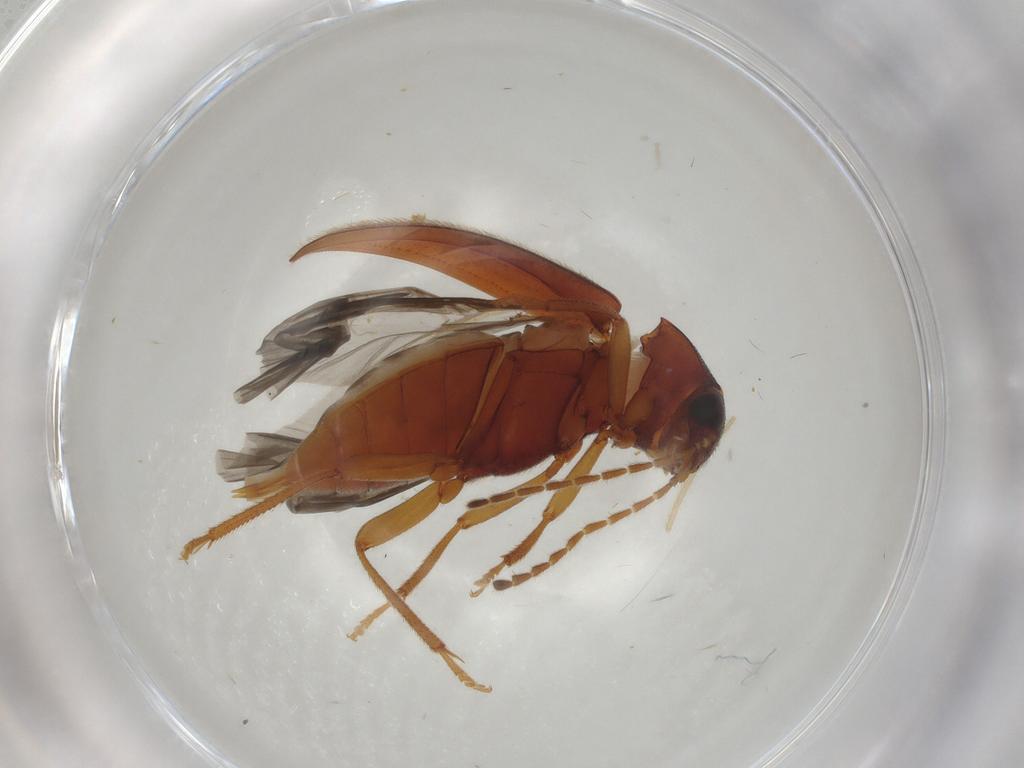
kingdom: Animalia
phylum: Arthropoda
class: Insecta
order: Coleoptera
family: Ptilodactylidae
